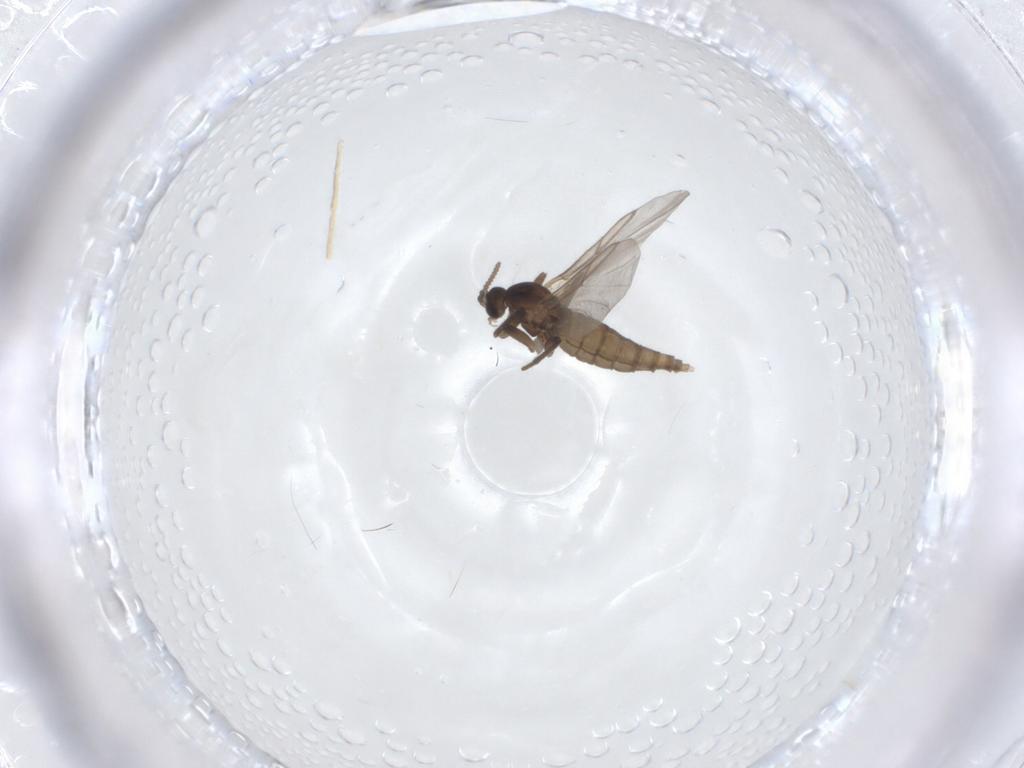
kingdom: Animalia
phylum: Arthropoda
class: Insecta
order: Diptera
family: Cecidomyiidae
